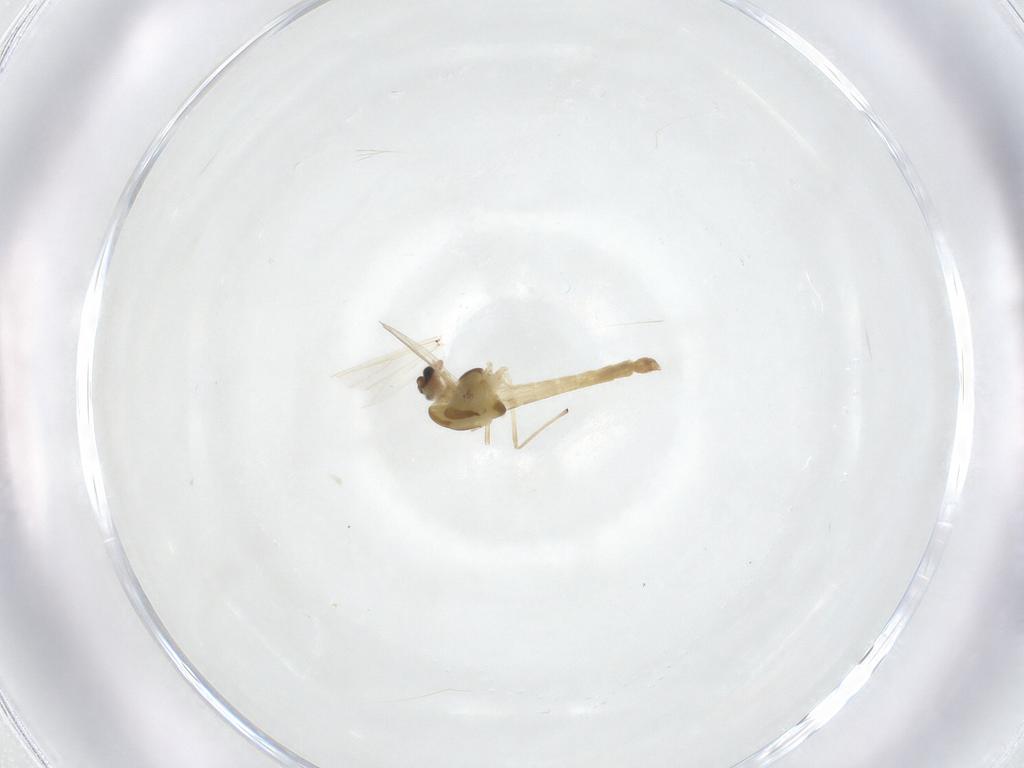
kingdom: Animalia
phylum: Arthropoda
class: Insecta
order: Diptera
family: Chironomidae
